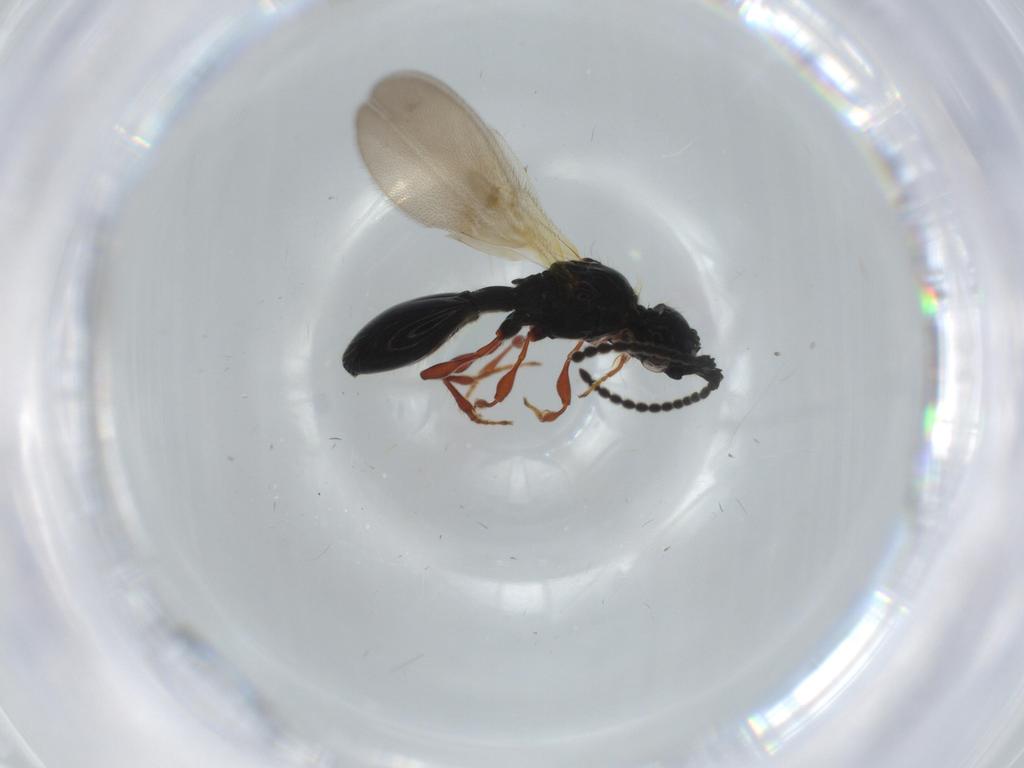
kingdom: Animalia
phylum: Arthropoda
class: Insecta
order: Hymenoptera
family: Diapriidae
